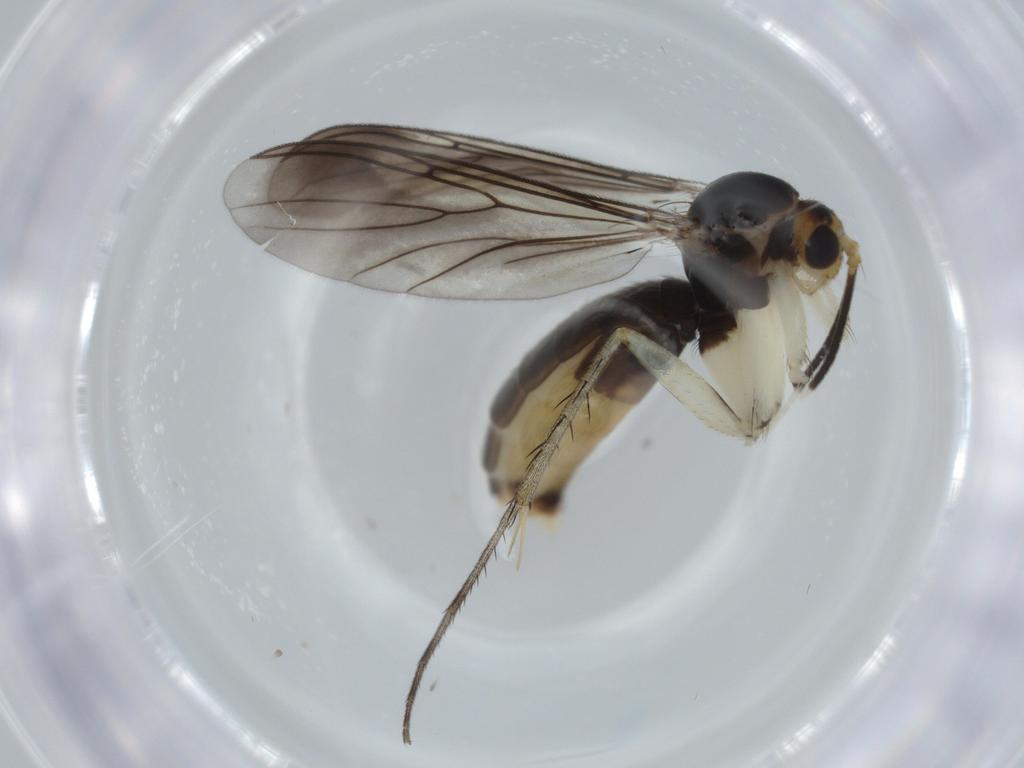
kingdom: Animalia
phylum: Arthropoda
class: Insecta
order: Diptera
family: Mycetophilidae
